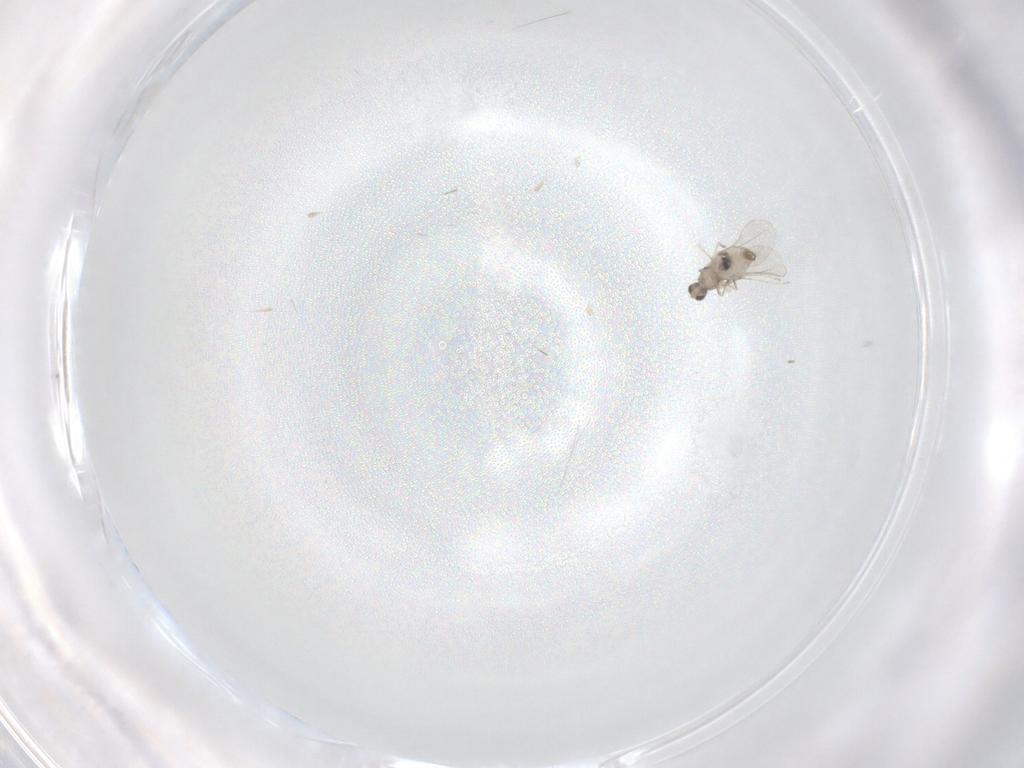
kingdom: Animalia
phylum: Arthropoda
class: Insecta
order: Diptera
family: Cecidomyiidae
